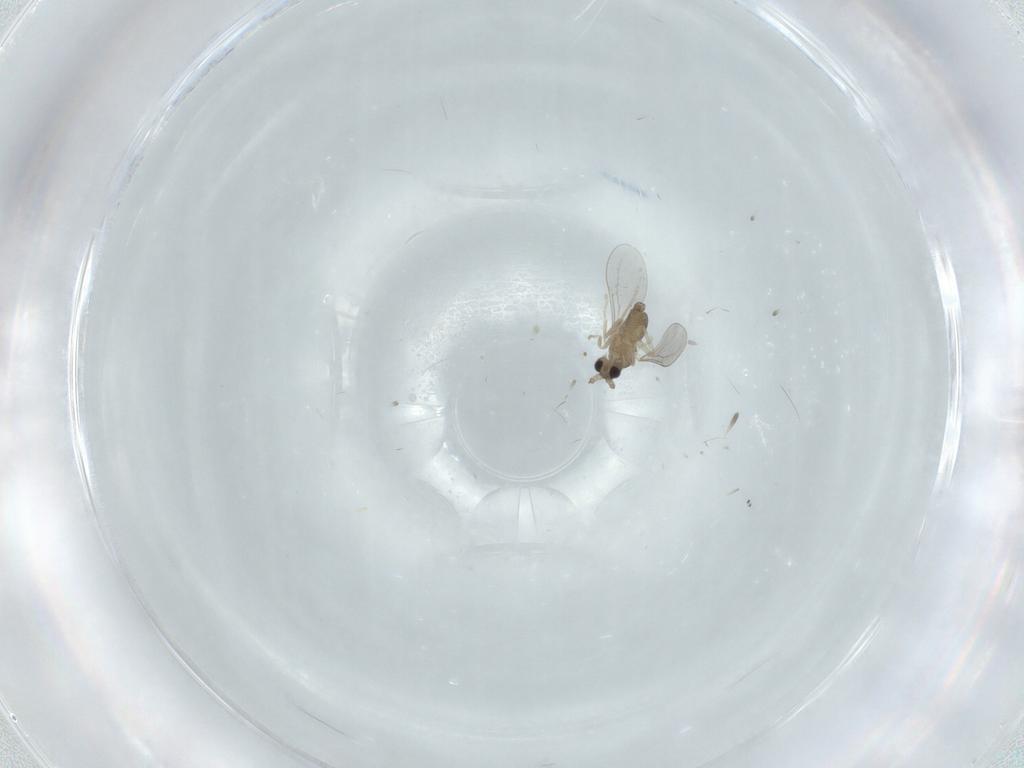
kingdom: Animalia
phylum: Arthropoda
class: Insecta
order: Diptera
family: Cecidomyiidae
